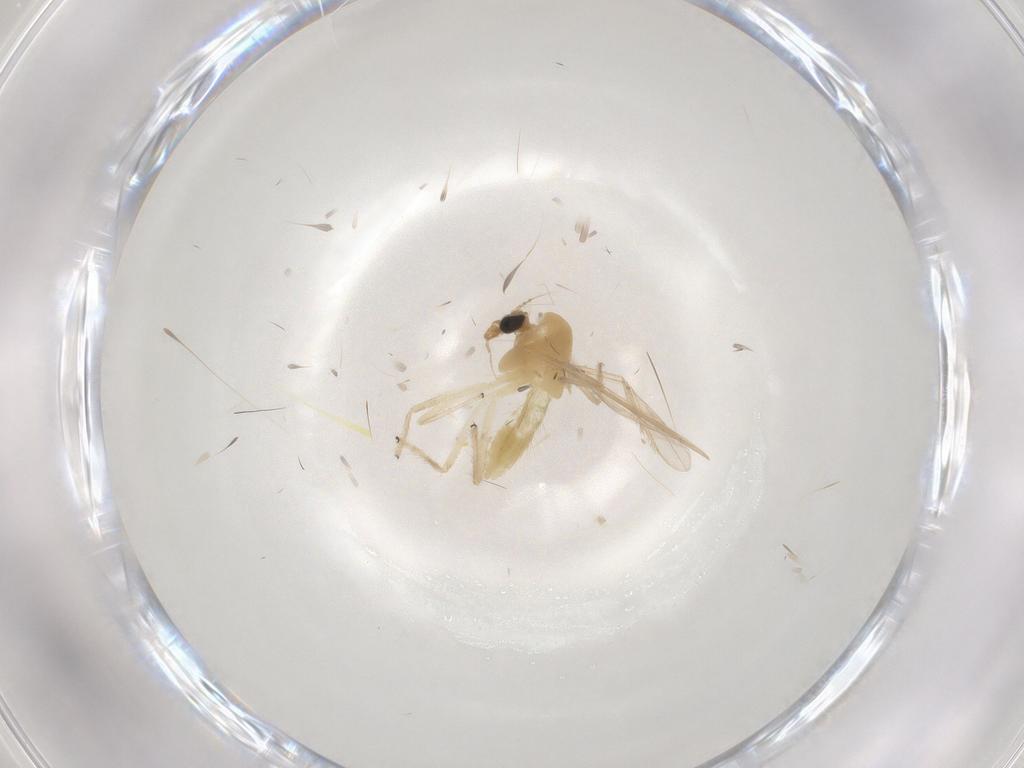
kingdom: Animalia
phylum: Arthropoda
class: Insecta
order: Diptera
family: Chironomidae
